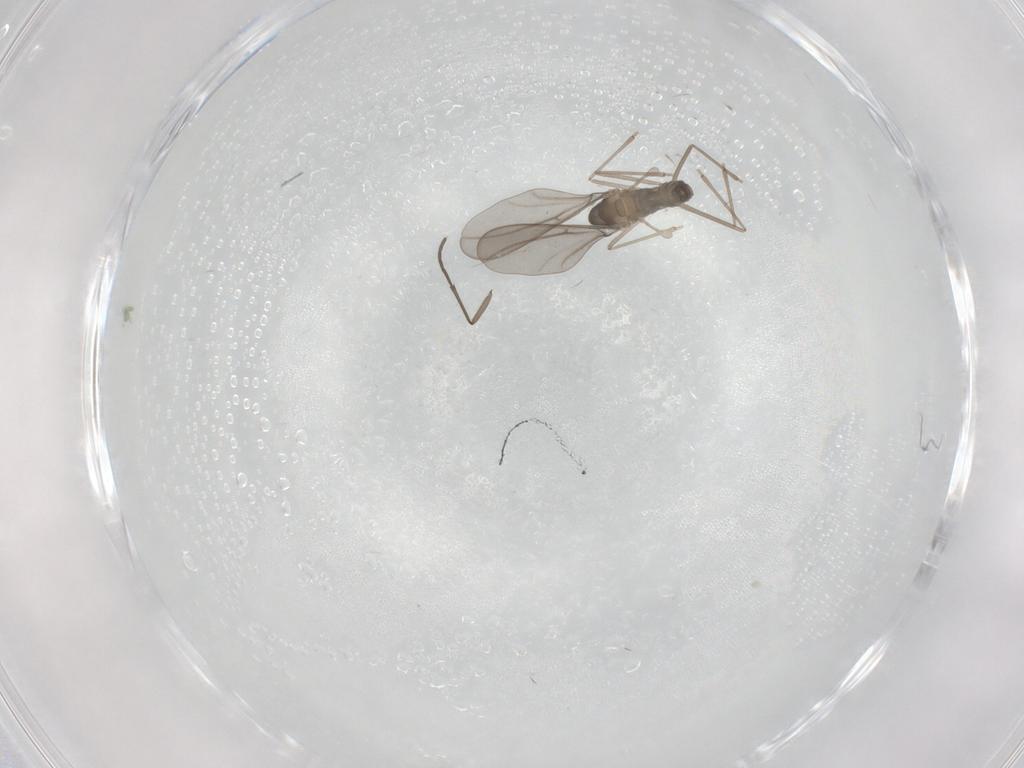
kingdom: Animalia
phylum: Arthropoda
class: Insecta
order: Diptera
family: Cecidomyiidae
